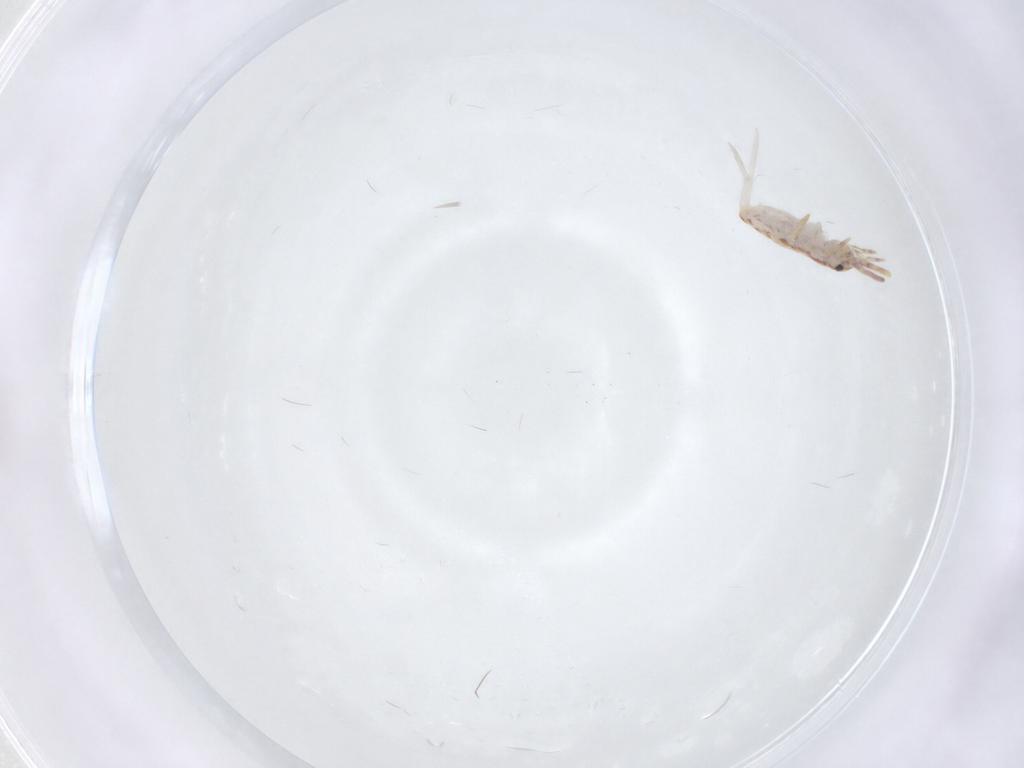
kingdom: Animalia
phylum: Arthropoda
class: Collembola
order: Entomobryomorpha
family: Entomobryidae
